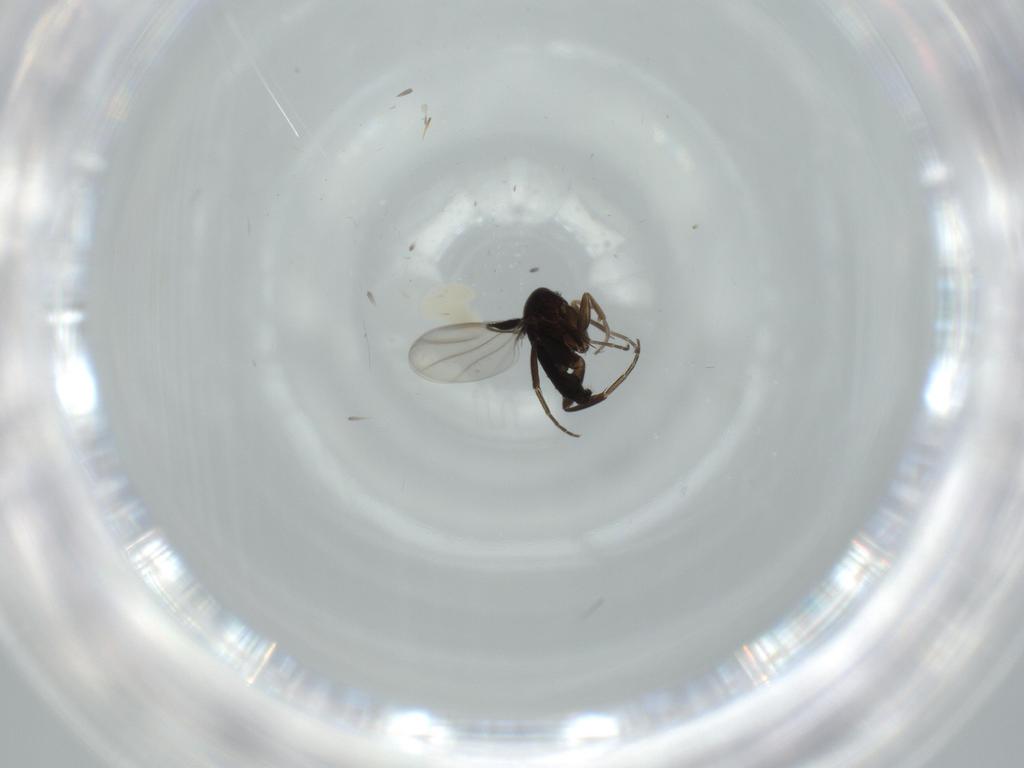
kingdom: Animalia
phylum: Arthropoda
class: Insecta
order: Diptera
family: Phoridae
